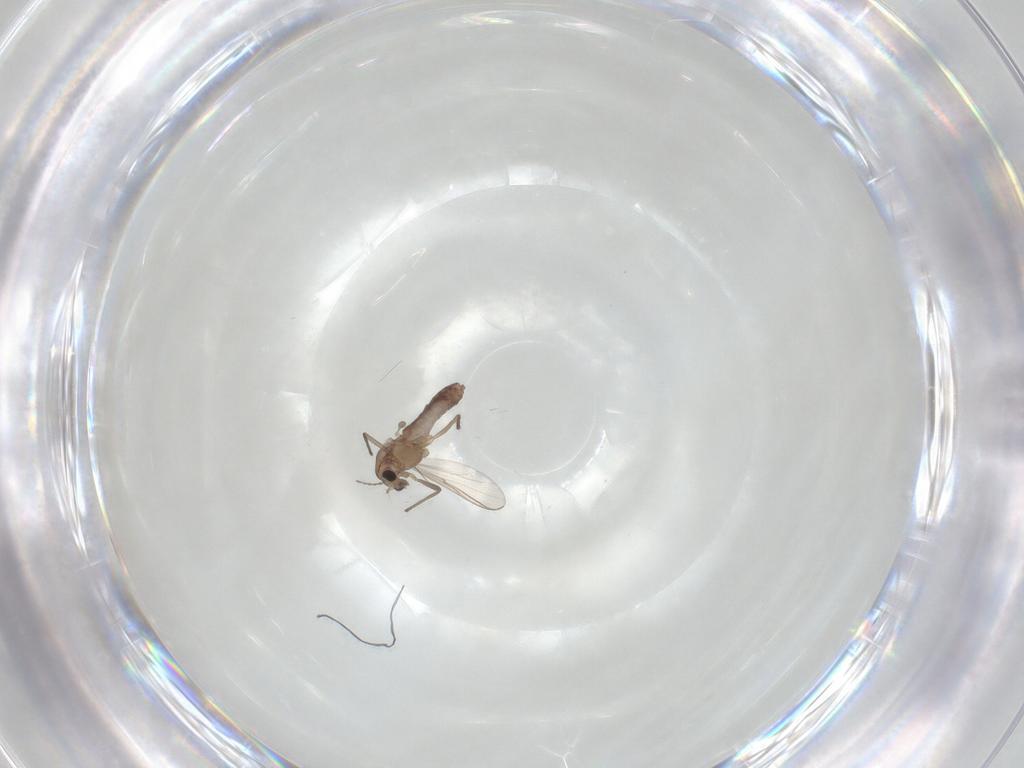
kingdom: Animalia
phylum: Arthropoda
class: Insecta
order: Diptera
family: Chironomidae
